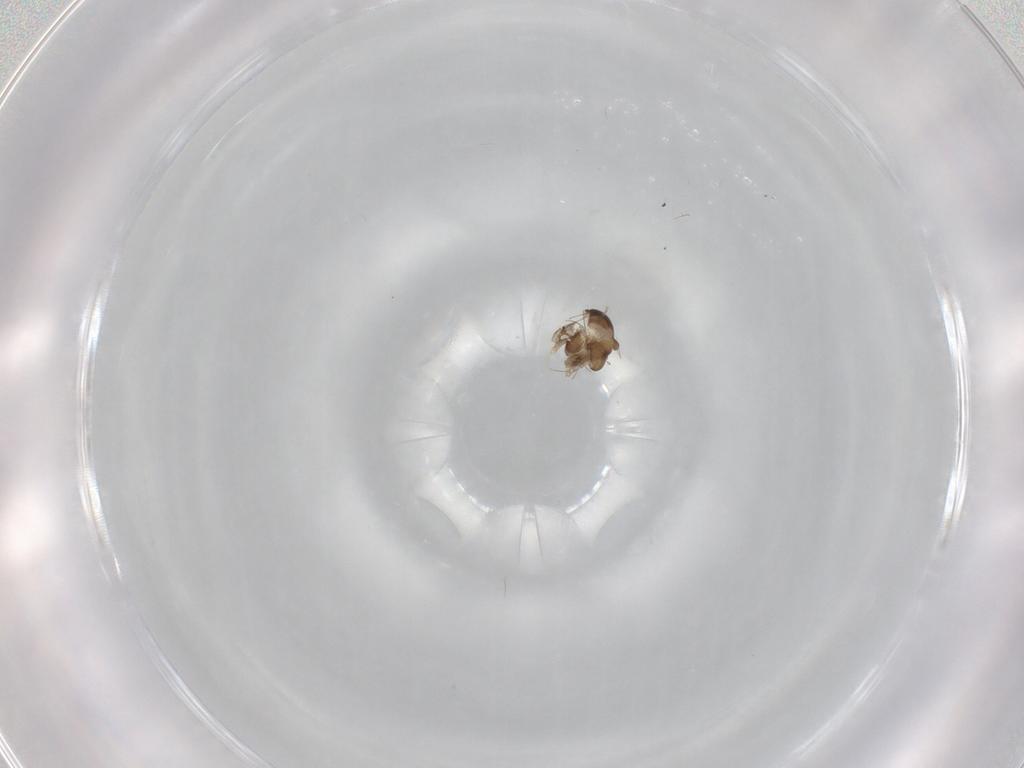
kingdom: Animalia
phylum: Arthropoda
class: Insecta
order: Diptera
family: Cecidomyiidae
